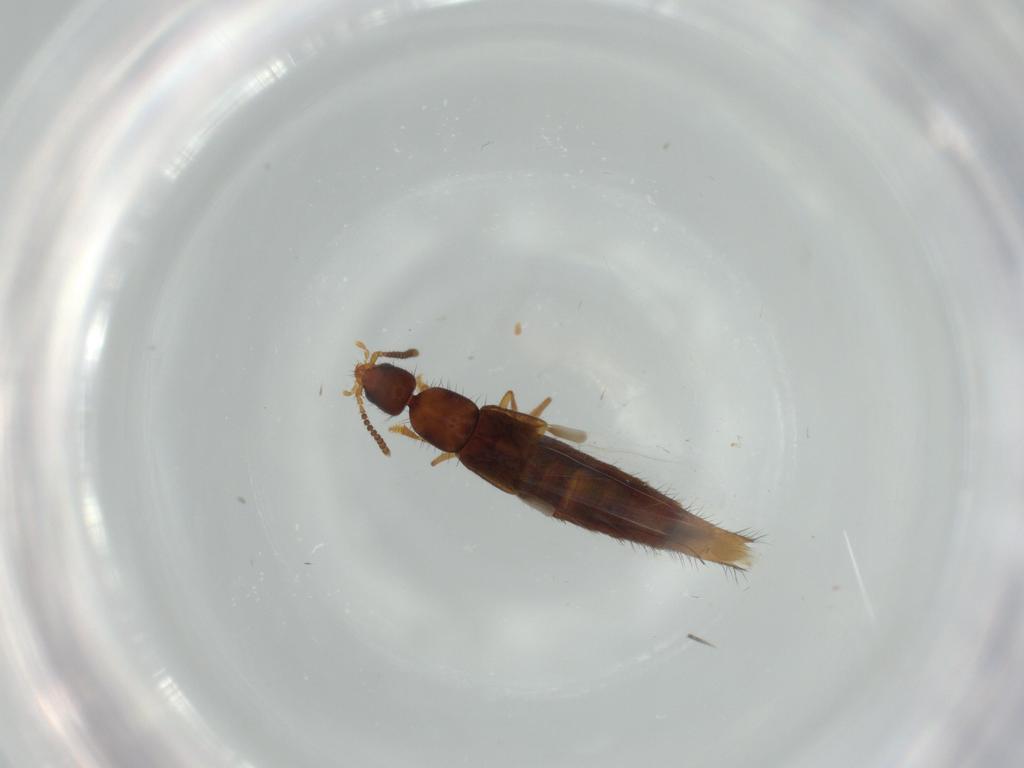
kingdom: Animalia
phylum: Arthropoda
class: Insecta
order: Coleoptera
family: Staphylinidae
